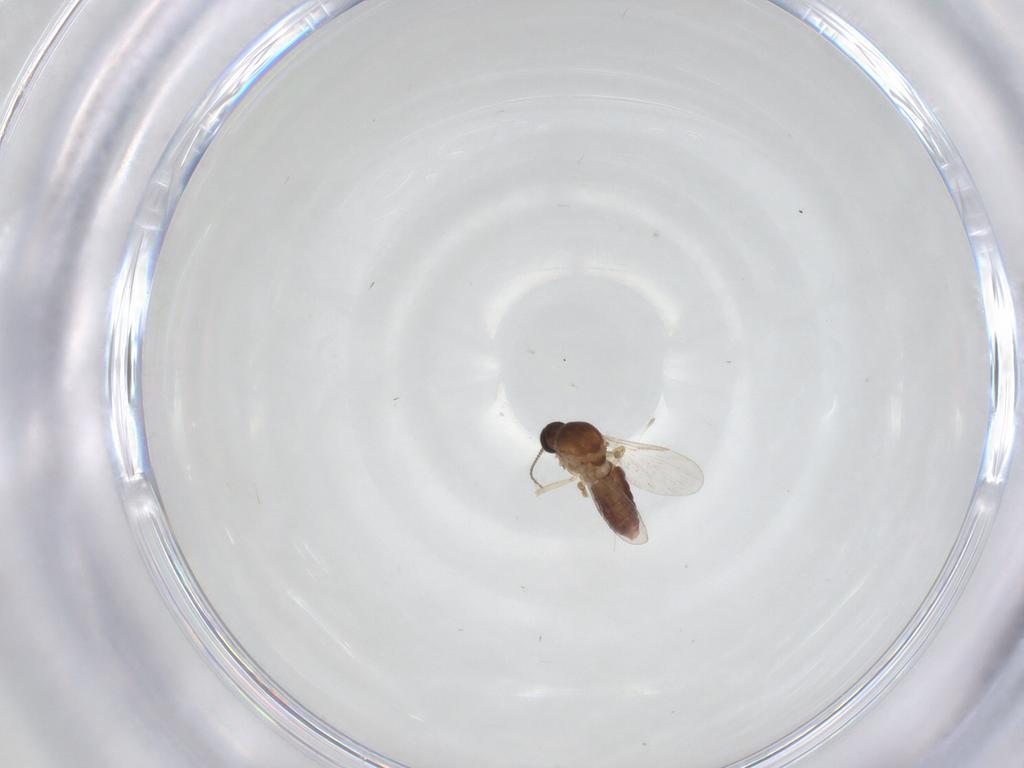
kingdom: Animalia
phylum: Arthropoda
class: Insecta
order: Diptera
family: Ceratopogonidae
